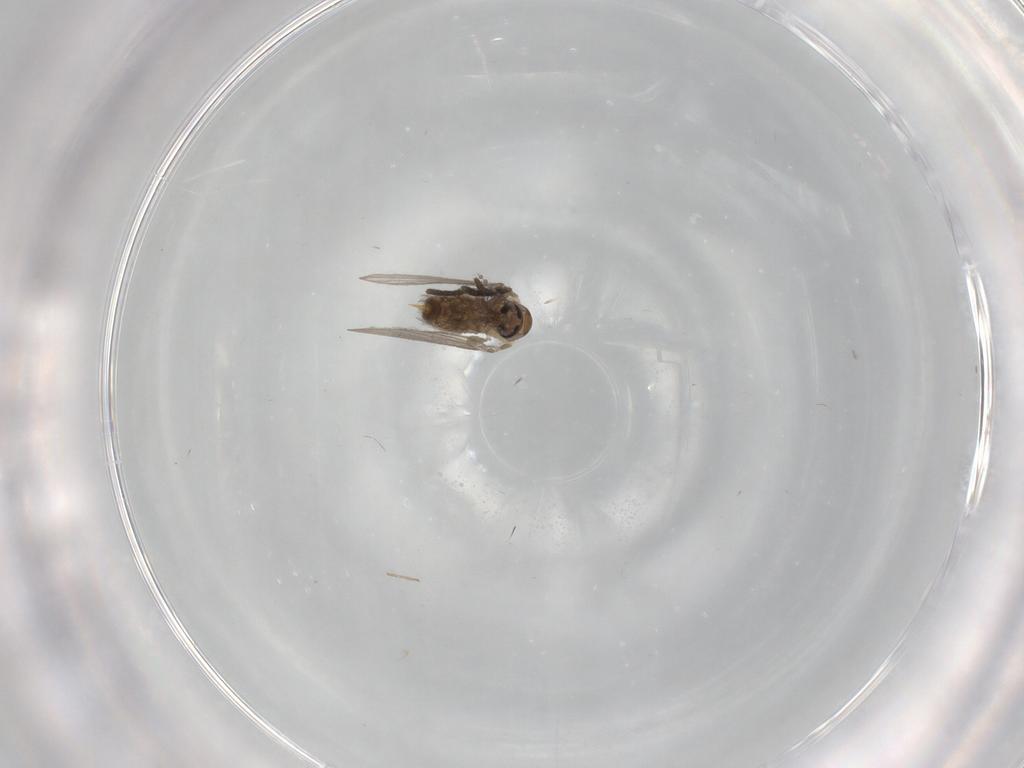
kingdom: Animalia
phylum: Arthropoda
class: Insecta
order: Diptera
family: Psychodidae
